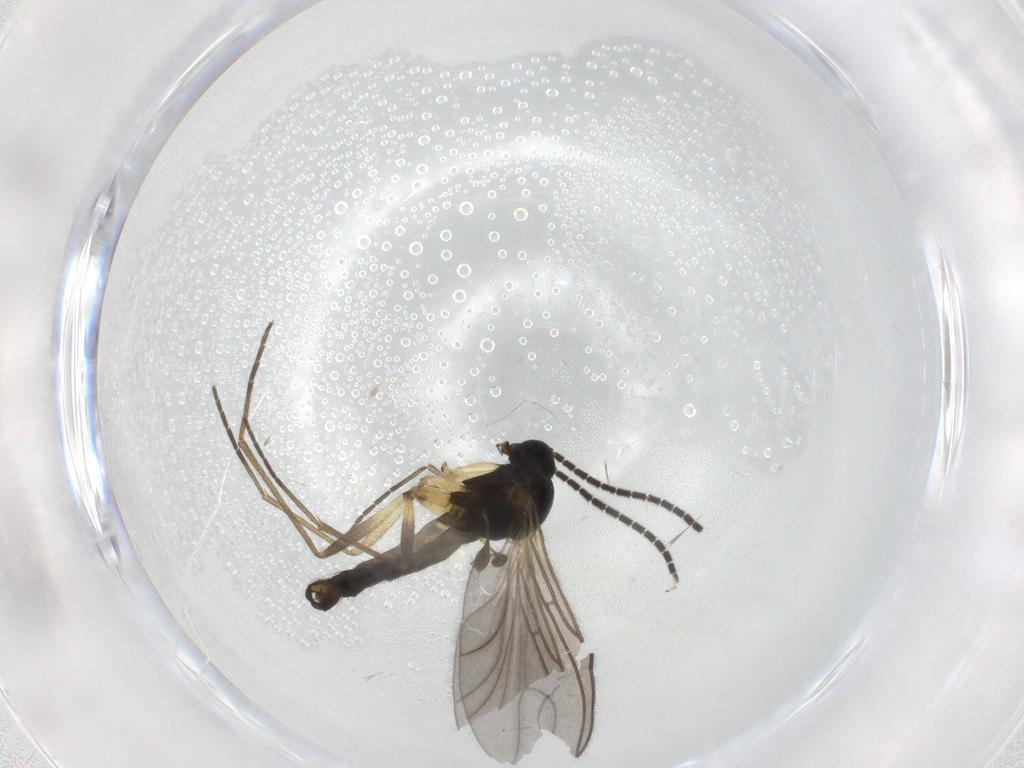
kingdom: Animalia
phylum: Arthropoda
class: Insecta
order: Diptera
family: Sciaridae
